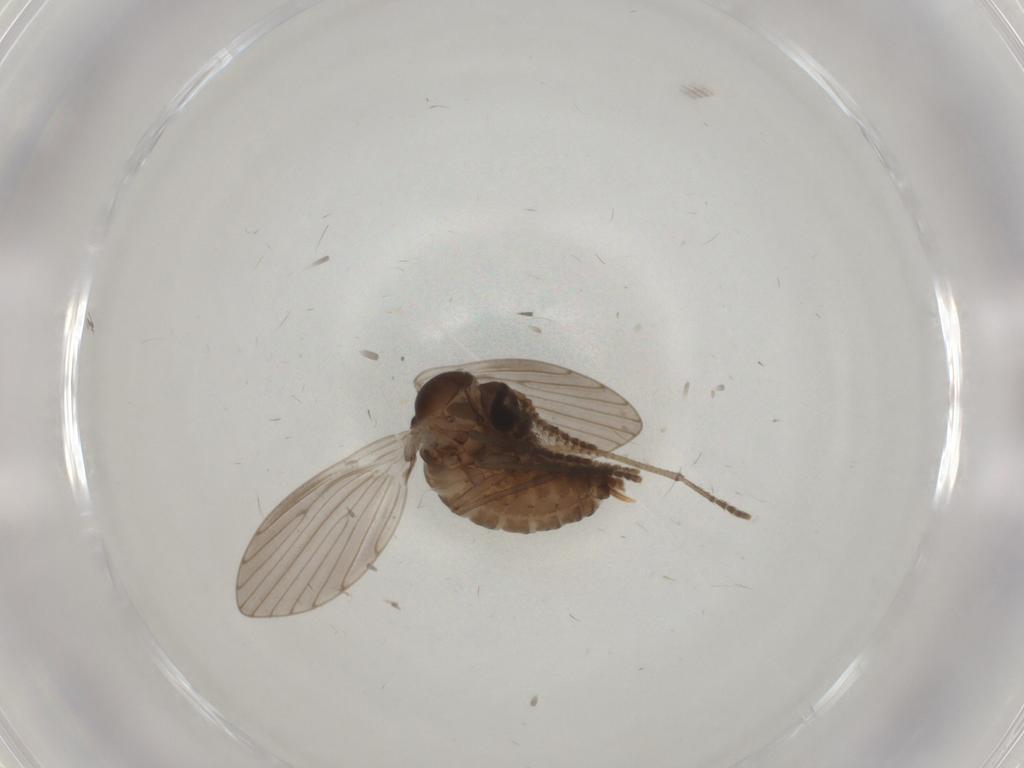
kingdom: Animalia
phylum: Arthropoda
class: Insecta
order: Diptera
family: Psychodidae
